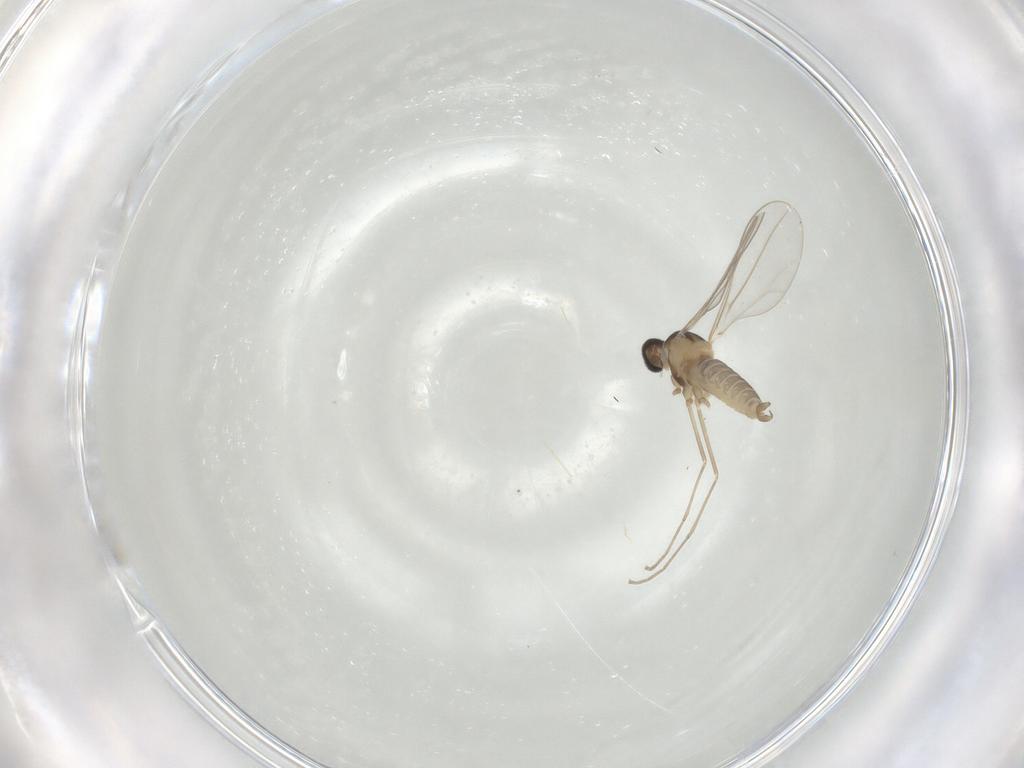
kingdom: Animalia
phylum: Arthropoda
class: Insecta
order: Diptera
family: Cecidomyiidae
